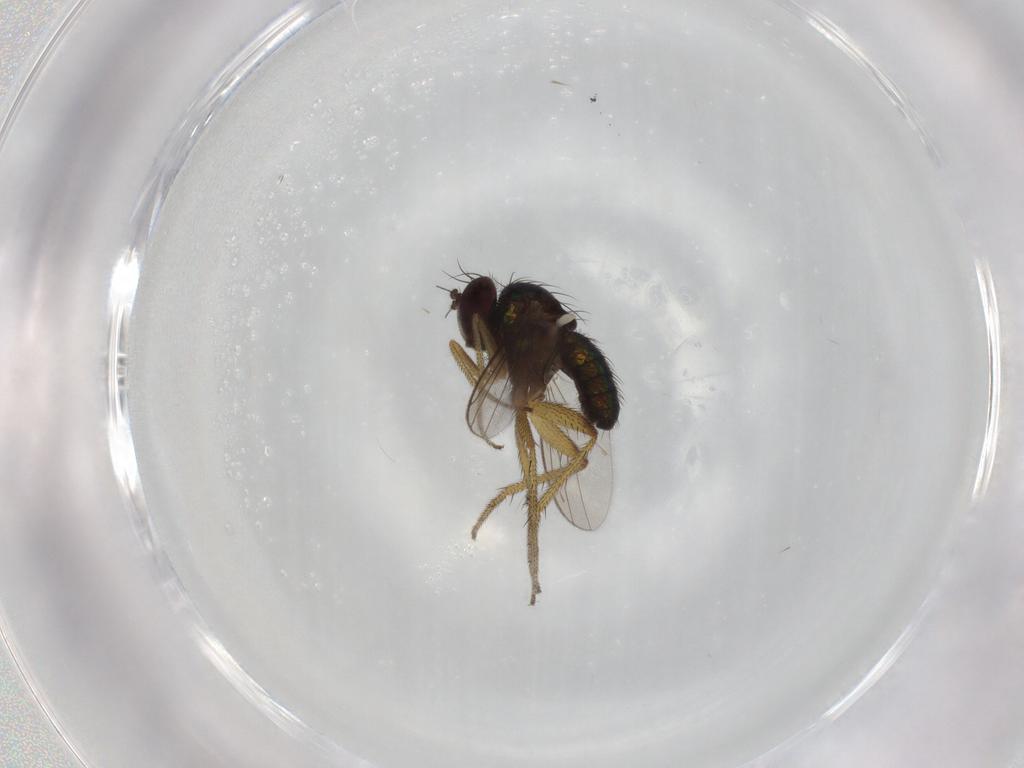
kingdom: Animalia
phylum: Arthropoda
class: Insecta
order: Diptera
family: Dolichopodidae
